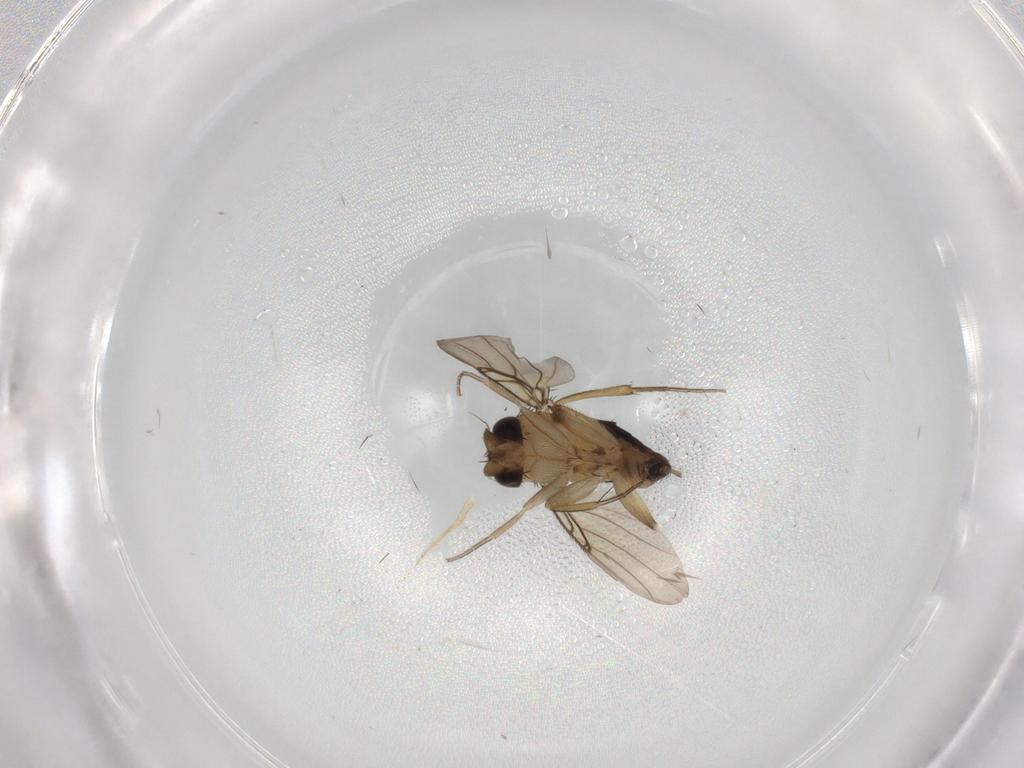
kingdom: Animalia
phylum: Arthropoda
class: Insecta
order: Diptera
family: Phoridae
